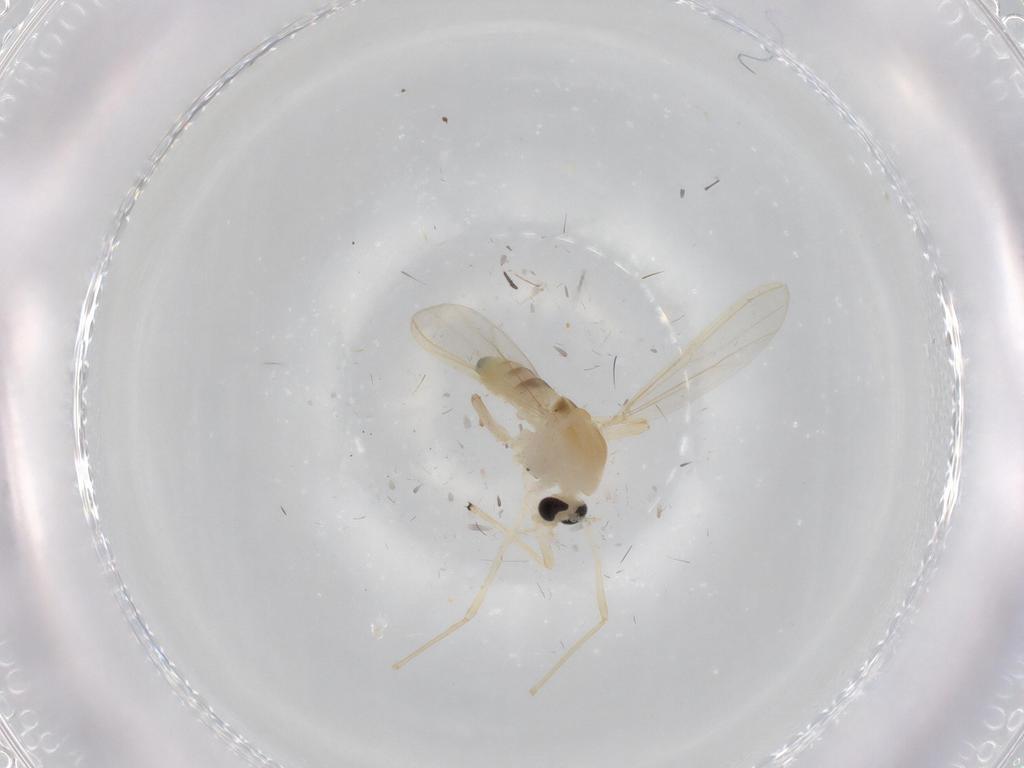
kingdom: Animalia
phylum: Arthropoda
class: Insecta
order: Diptera
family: Chironomidae
